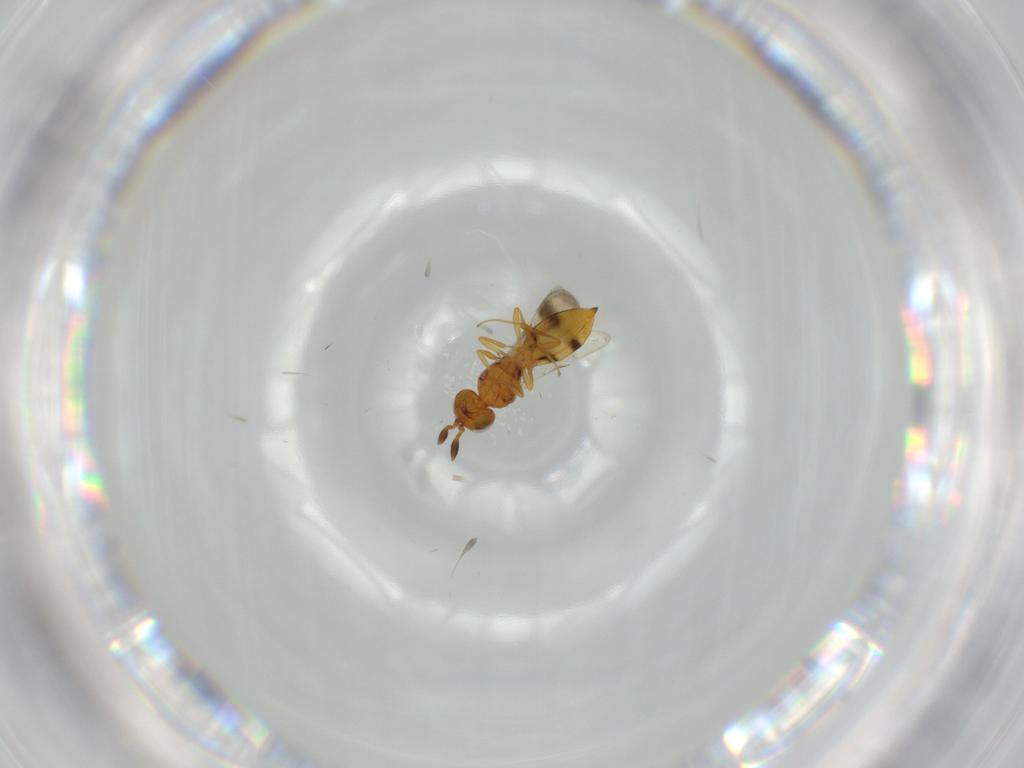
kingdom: Animalia
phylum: Arthropoda
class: Insecta
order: Hymenoptera
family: Scelionidae
